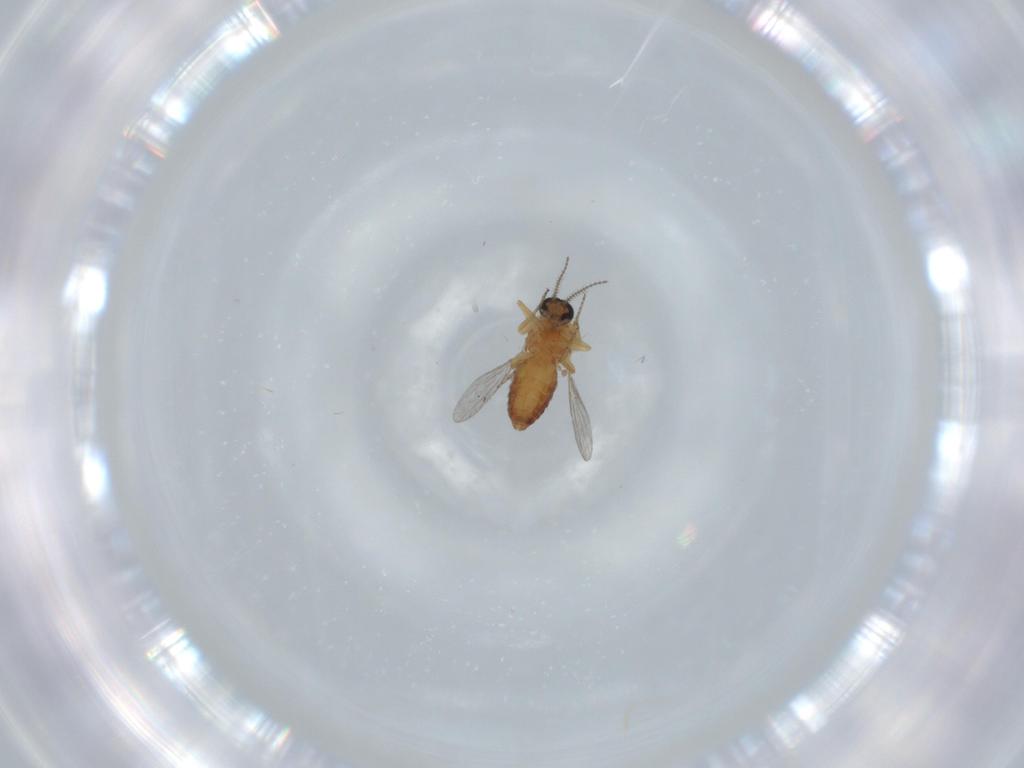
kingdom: Animalia
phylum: Arthropoda
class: Insecta
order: Diptera
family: Ceratopogonidae
